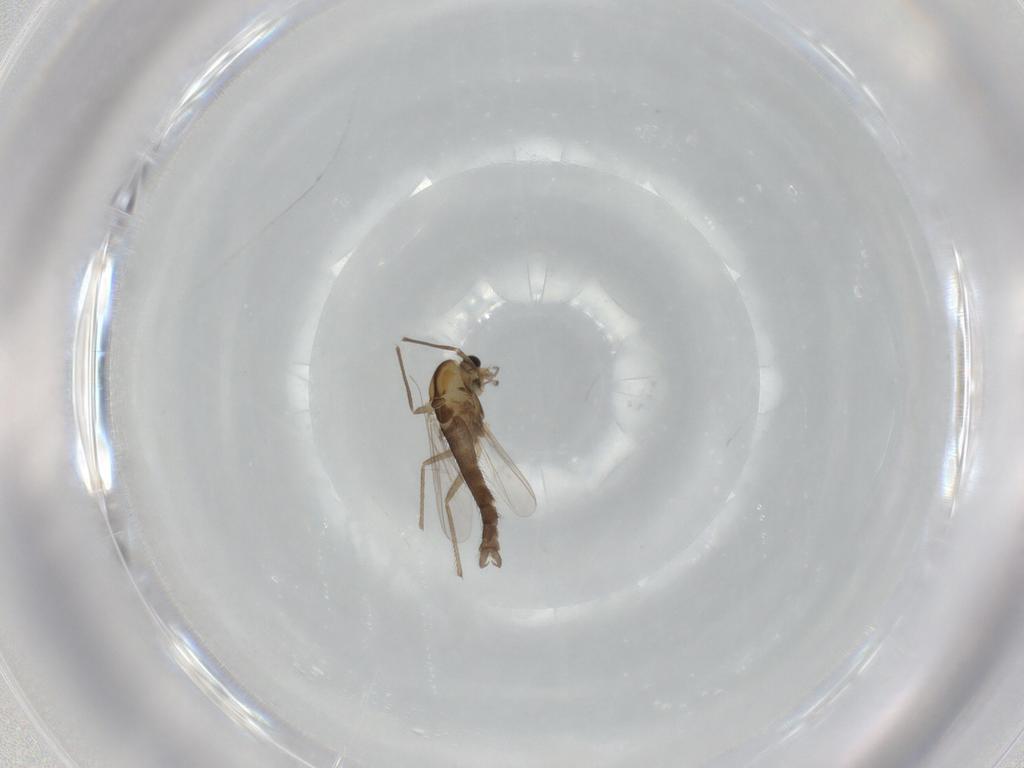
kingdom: Animalia
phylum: Arthropoda
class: Insecta
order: Diptera
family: Chironomidae
